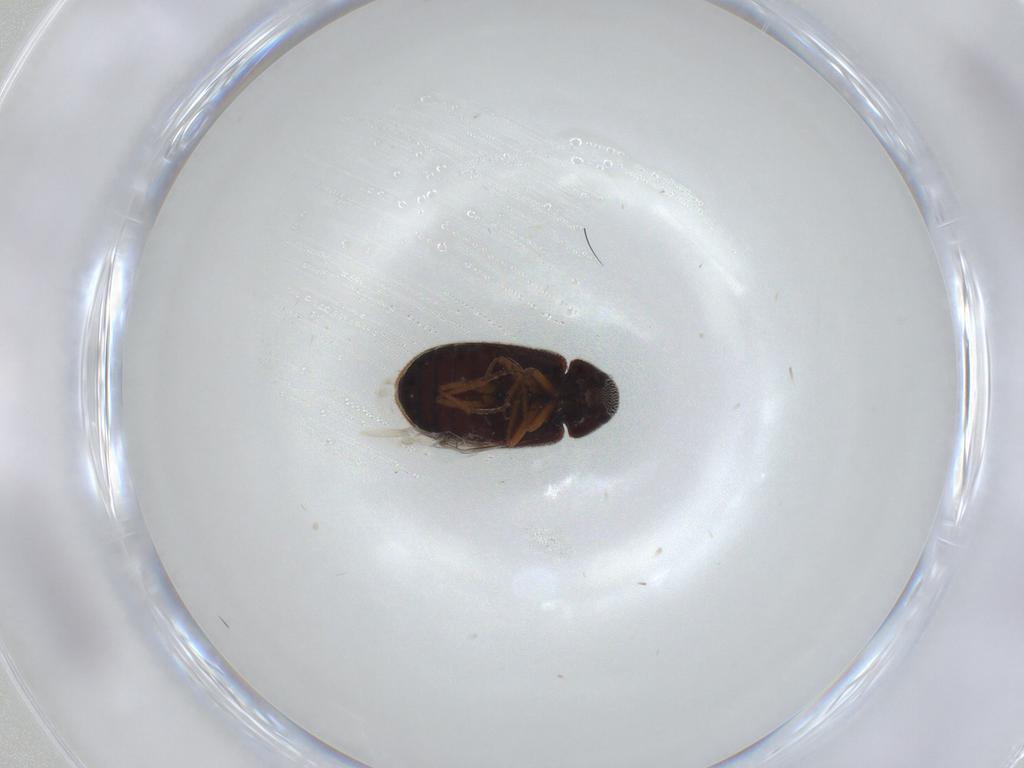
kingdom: Animalia
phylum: Arthropoda
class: Insecta
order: Coleoptera
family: Rhadalidae
